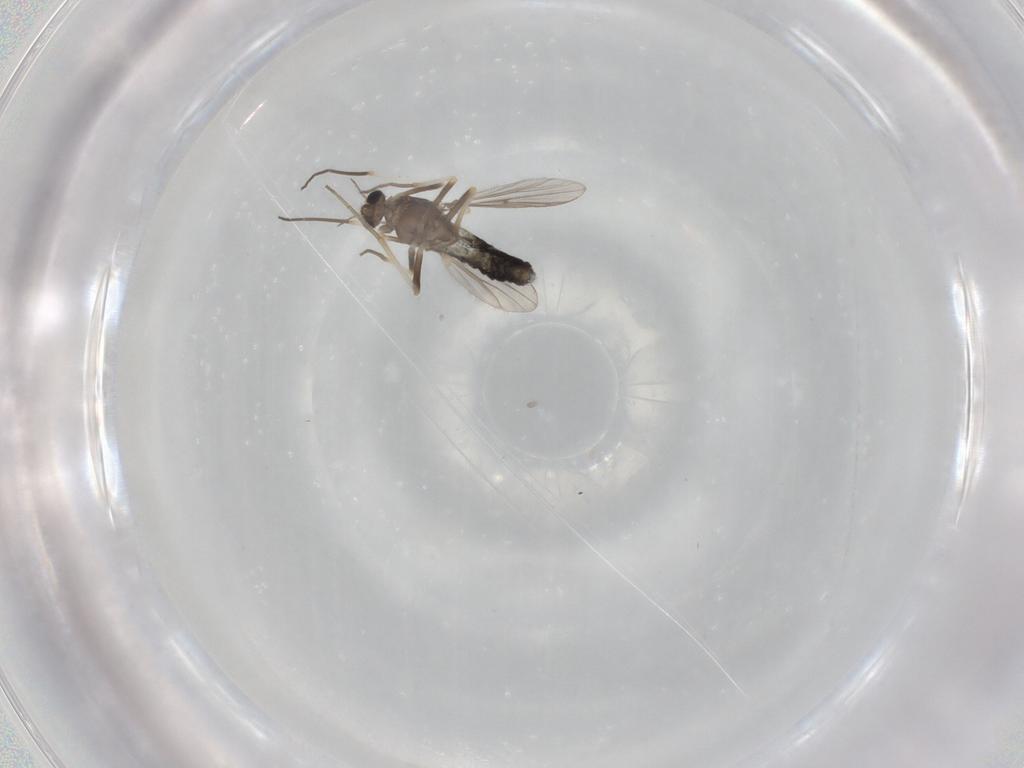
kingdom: Animalia
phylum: Arthropoda
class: Insecta
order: Diptera
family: Chironomidae
